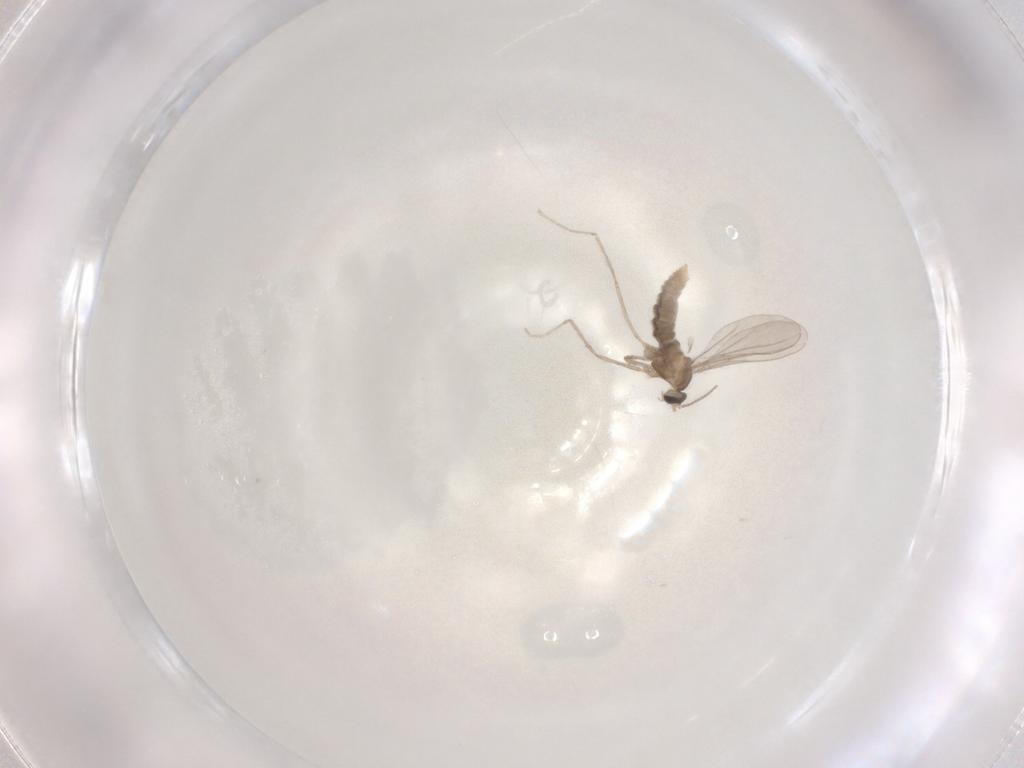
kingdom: Animalia
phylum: Arthropoda
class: Insecta
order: Diptera
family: Cecidomyiidae
